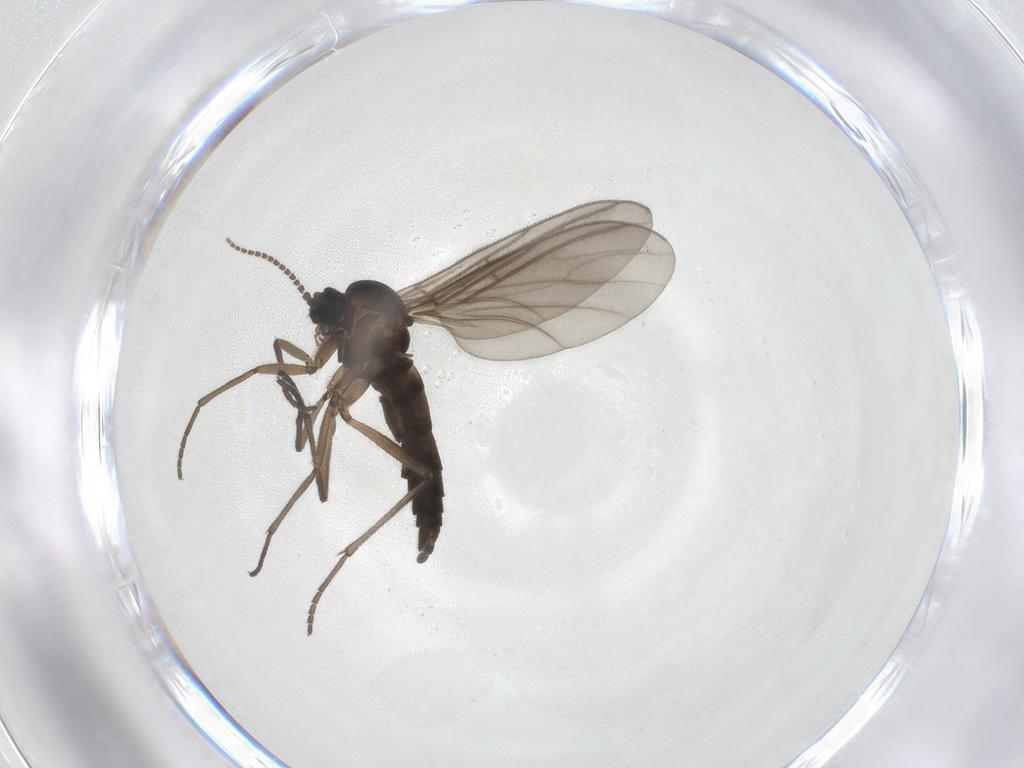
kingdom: Animalia
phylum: Arthropoda
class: Insecta
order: Diptera
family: Sciaridae
